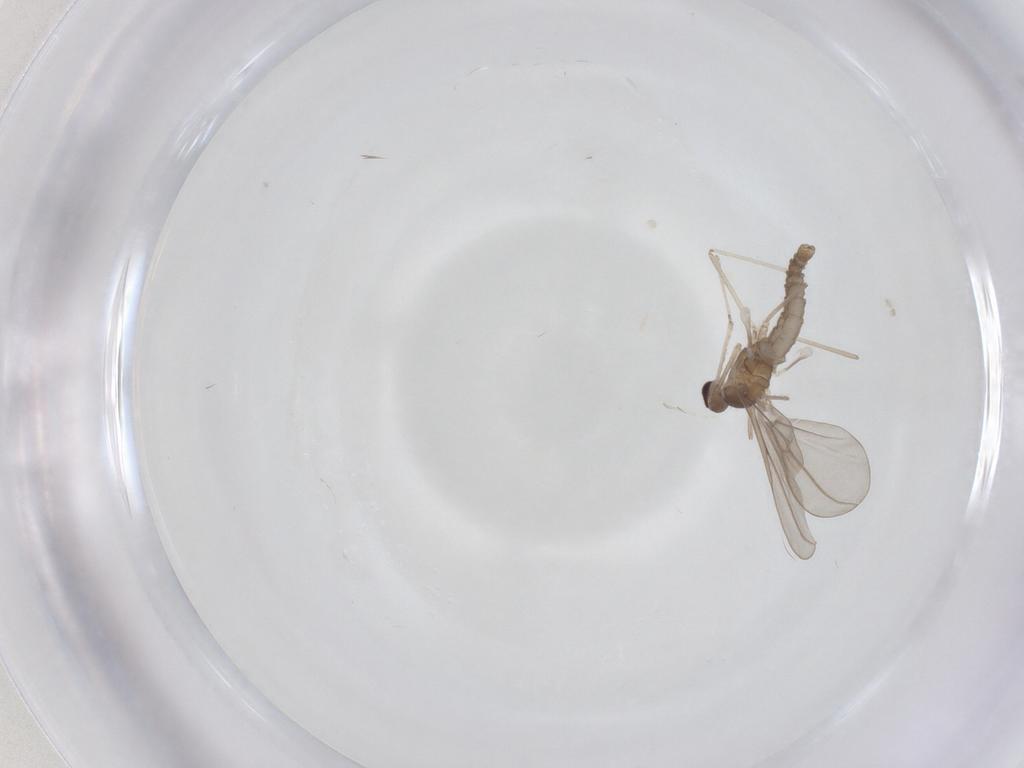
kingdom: Animalia
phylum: Arthropoda
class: Insecta
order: Diptera
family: Cecidomyiidae
